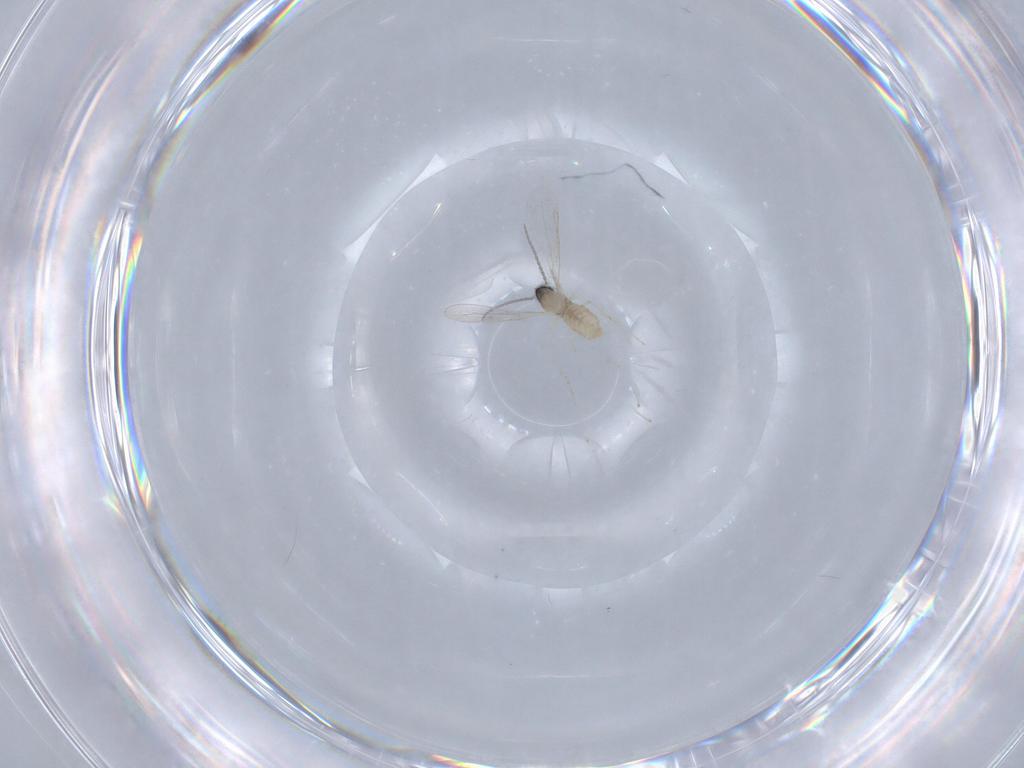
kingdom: Animalia
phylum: Arthropoda
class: Insecta
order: Diptera
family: Cecidomyiidae
